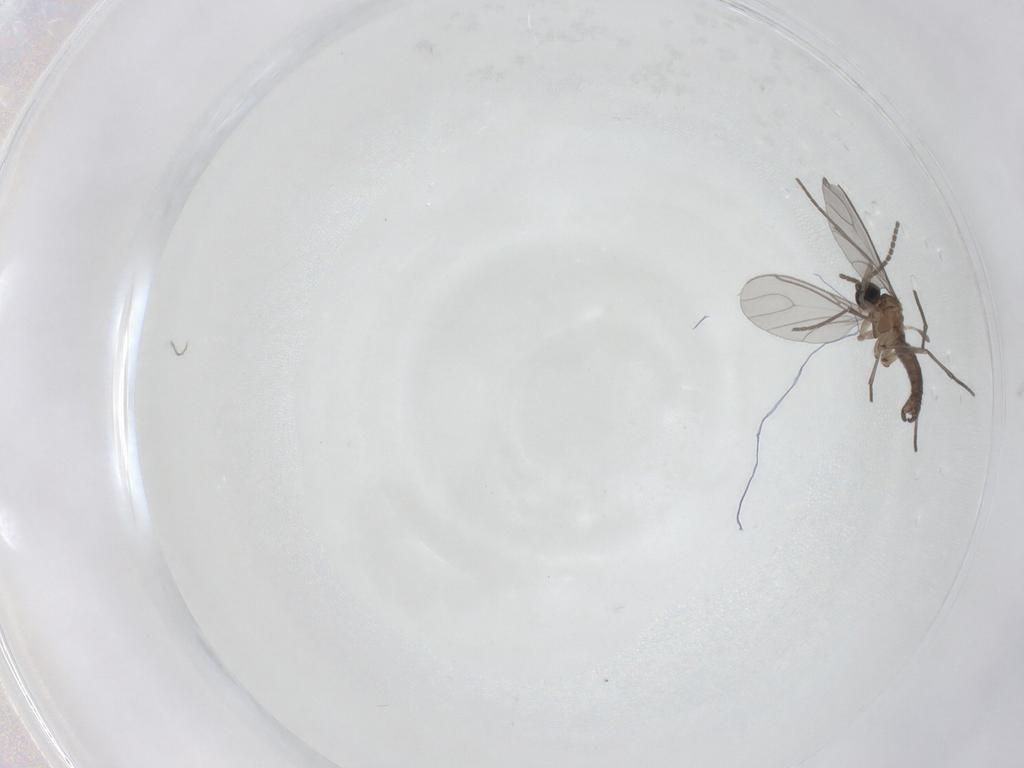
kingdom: Animalia
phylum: Arthropoda
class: Insecta
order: Diptera
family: Sciaridae
